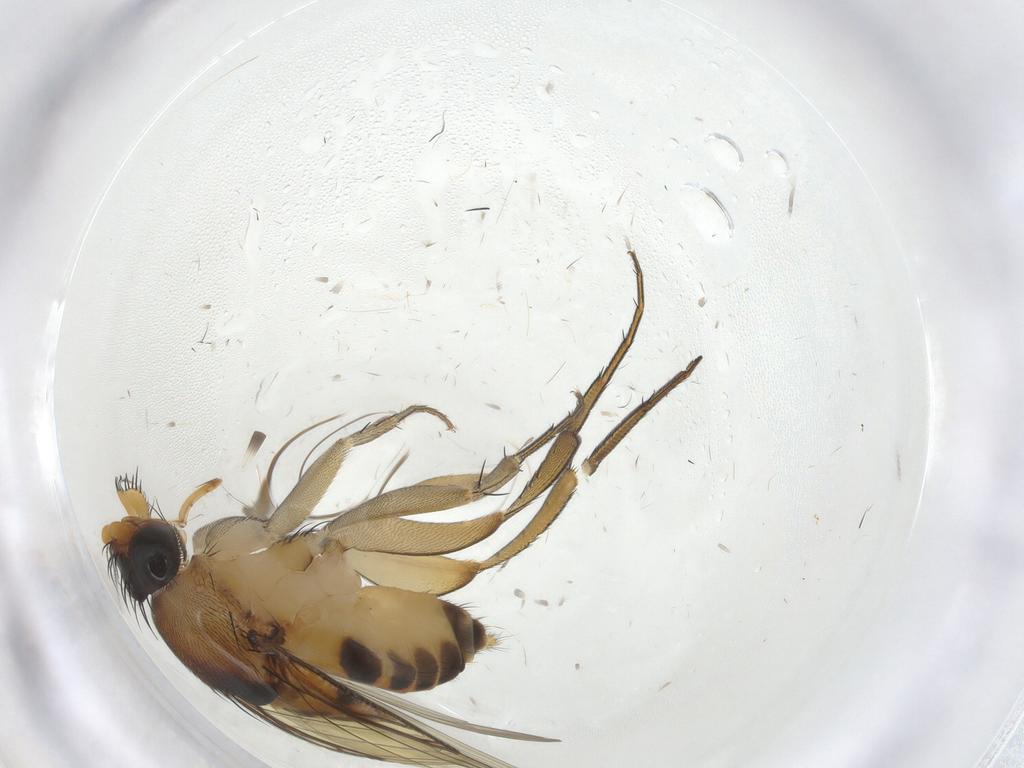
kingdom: Animalia
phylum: Arthropoda
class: Insecta
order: Diptera
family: Phoridae
